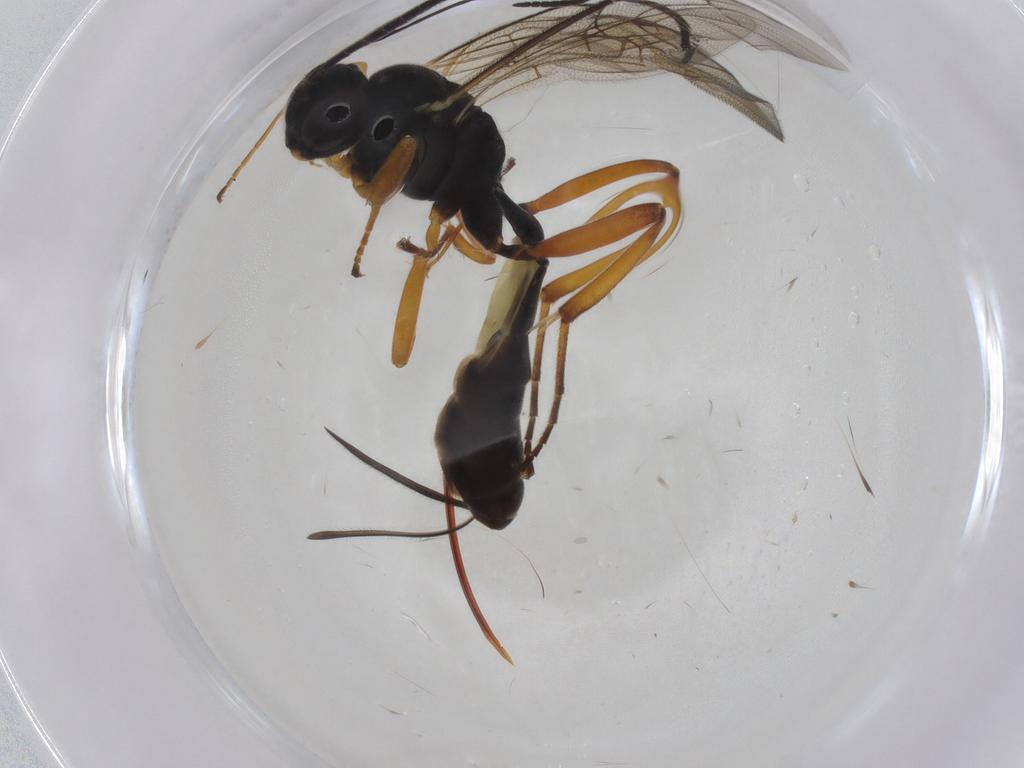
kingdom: Animalia
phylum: Arthropoda
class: Insecta
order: Hymenoptera
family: Ichneumonidae
